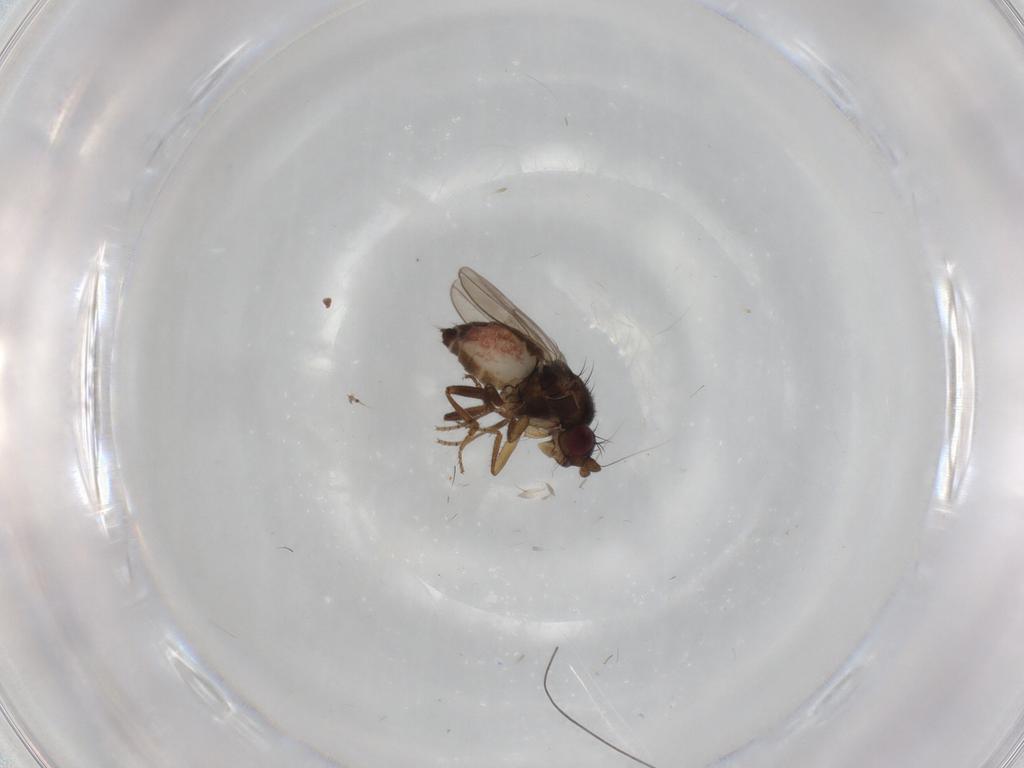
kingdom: Animalia
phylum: Arthropoda
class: Insecta
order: Diptera
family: Sphaeroceridae
